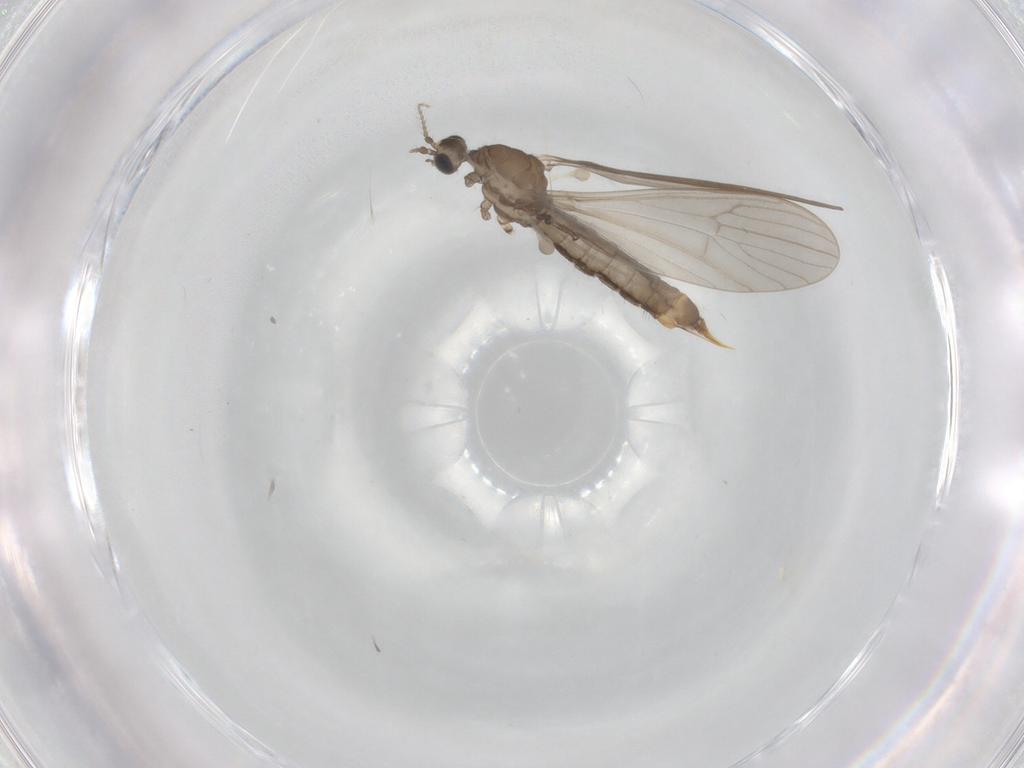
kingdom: Animalia
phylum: Arthropoda
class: Insecta
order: Diptera
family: Limoniidae
